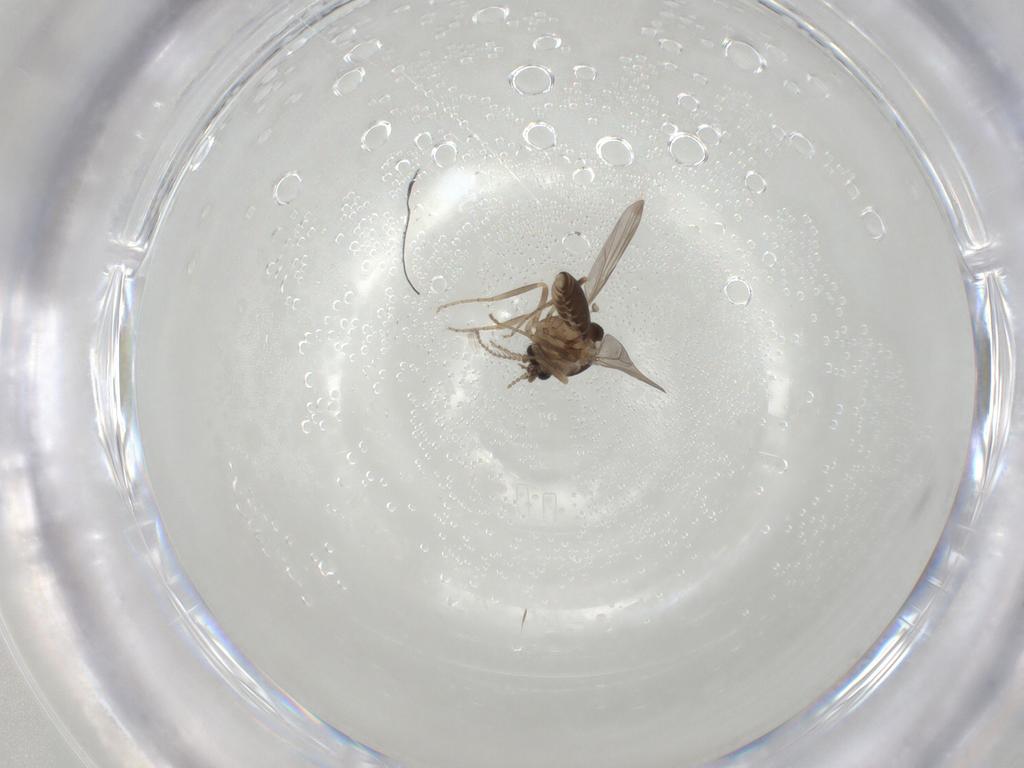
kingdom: Animalia
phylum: Arthropoda
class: Insecta
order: Diptera
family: Ceratopogonidae
